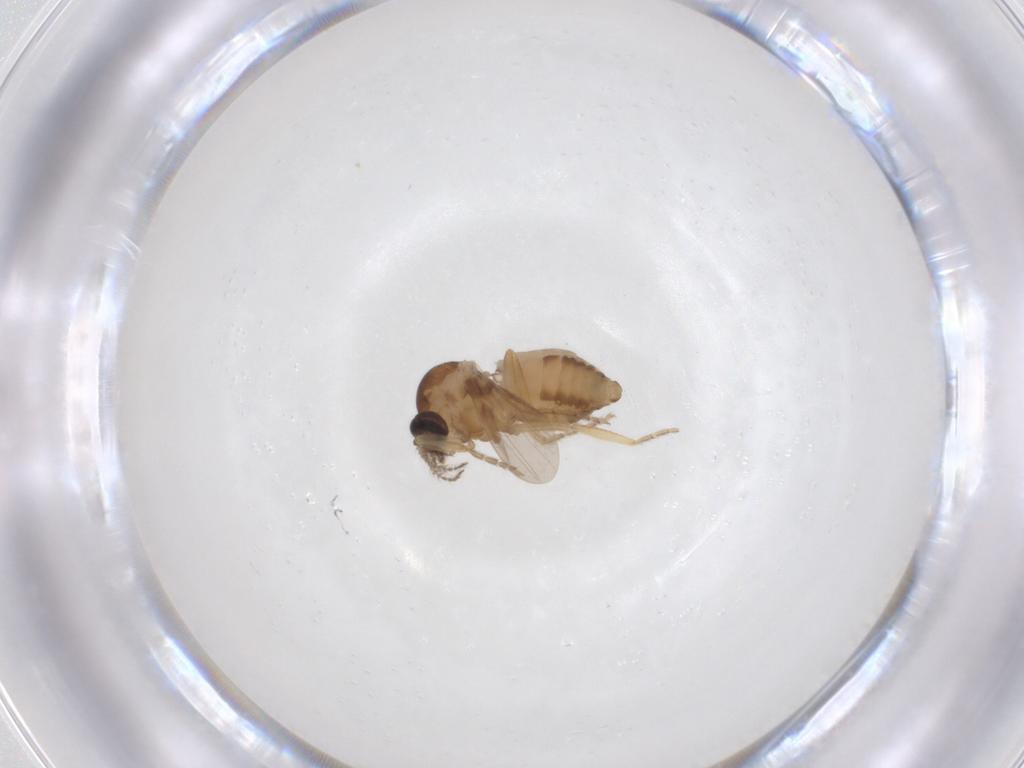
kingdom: Animalia
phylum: Arthropoda
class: Insecta
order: Diptera
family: Ceratopogonidae
